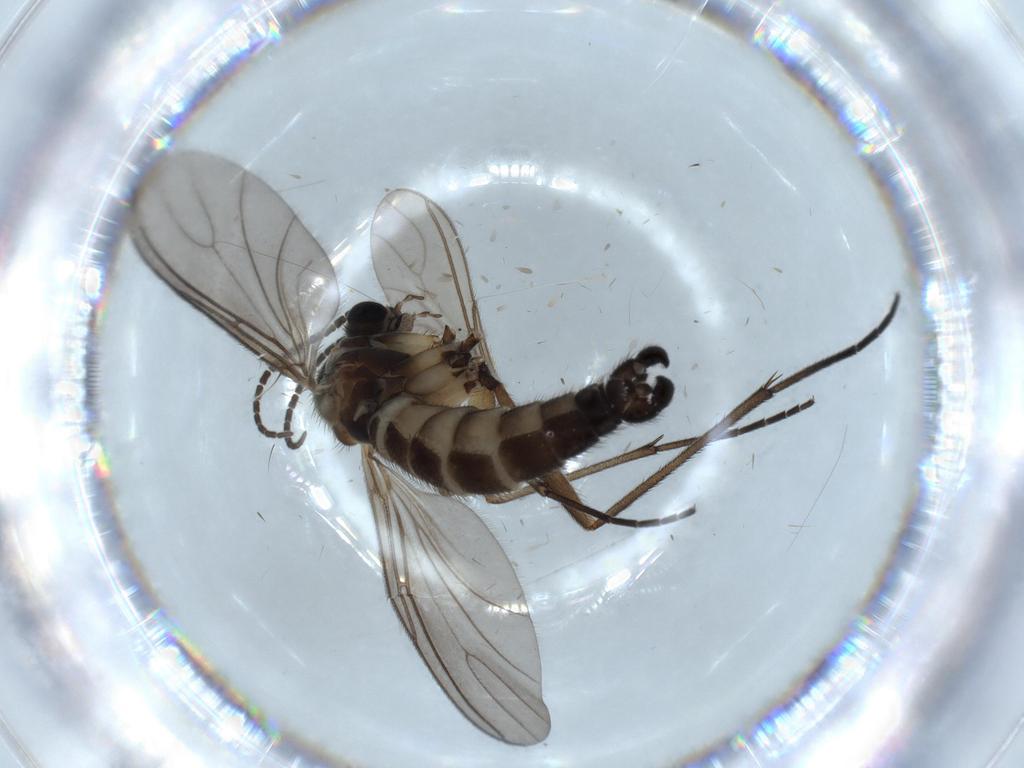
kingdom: Animalia
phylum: Arthropoda
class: Insecta
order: Diptera
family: Sciaridae
